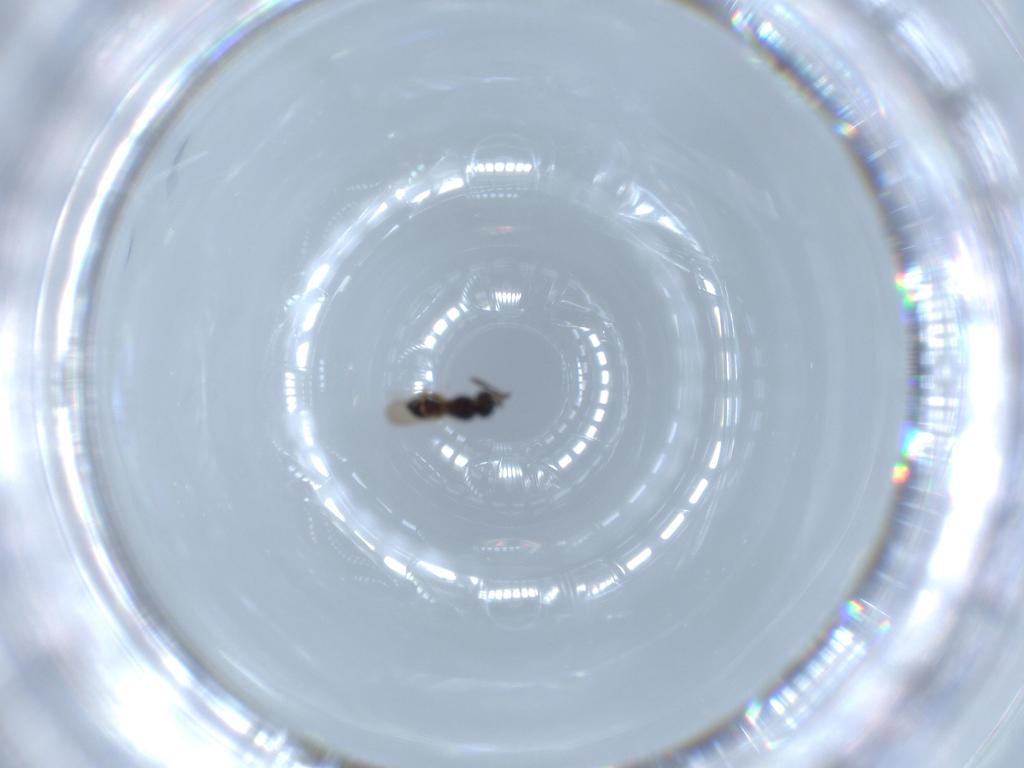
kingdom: Animalia
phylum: Arthropoda
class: Insecta
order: Hymenoptera
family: Scelionidae
